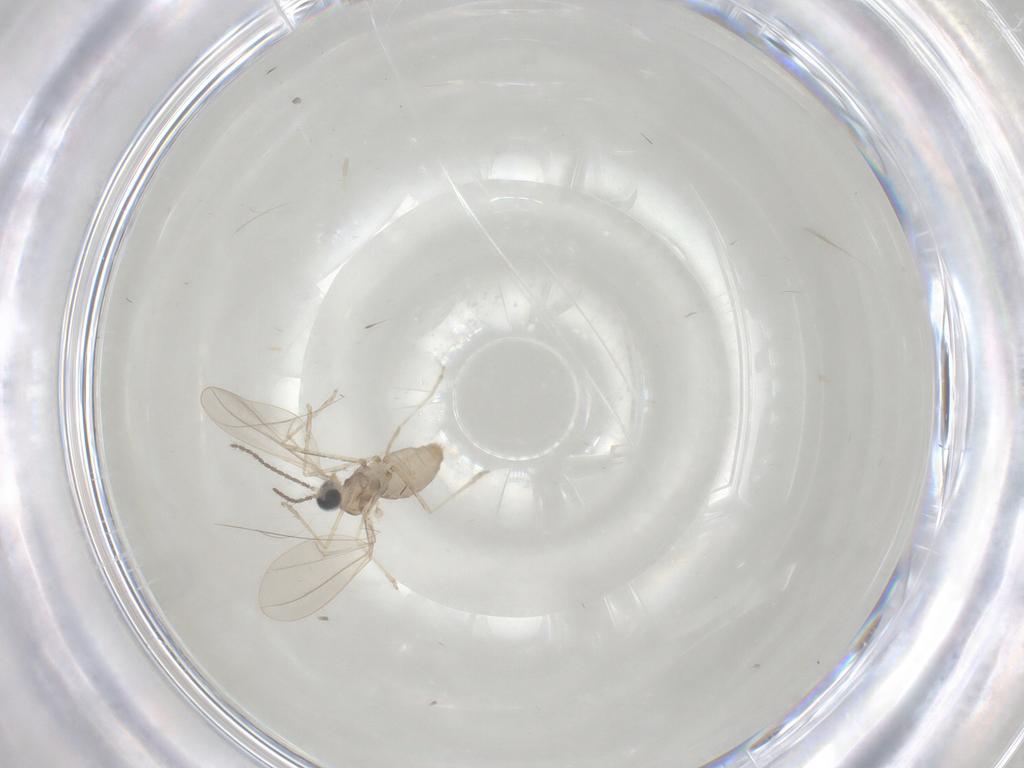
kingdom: Animalia
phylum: Arthropoda
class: Insecta
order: Diptera
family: Cecidomyiidae
